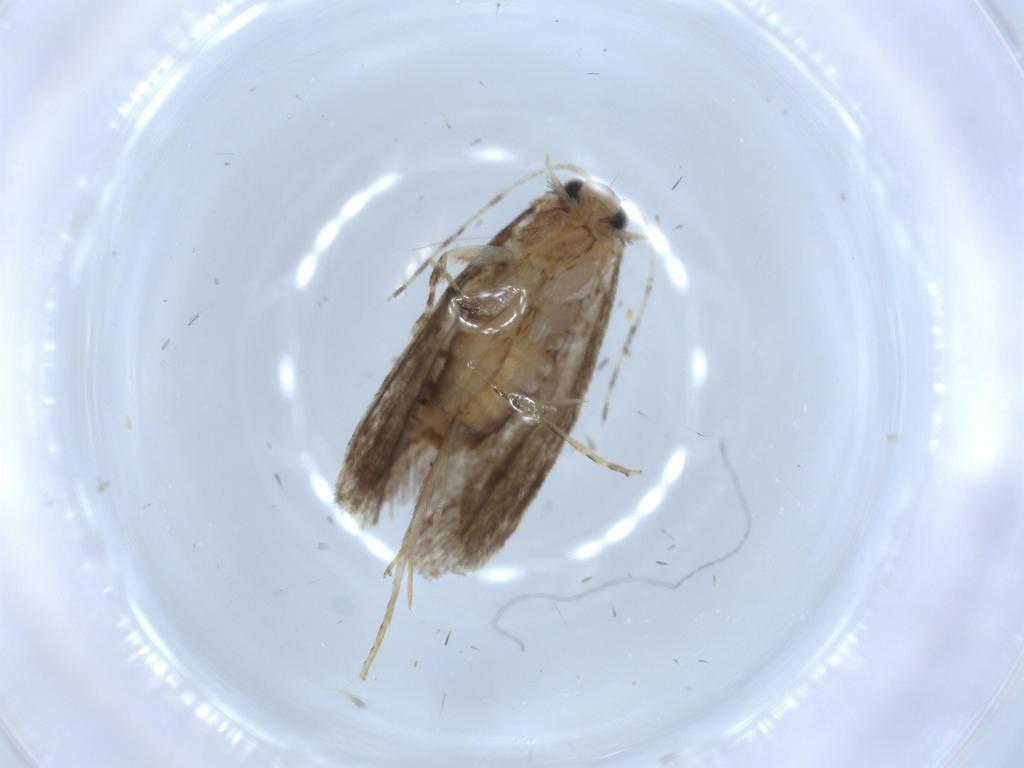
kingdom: Animalia
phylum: Arthropoda
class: Insecta
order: Lepidoptera
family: Tineidae
